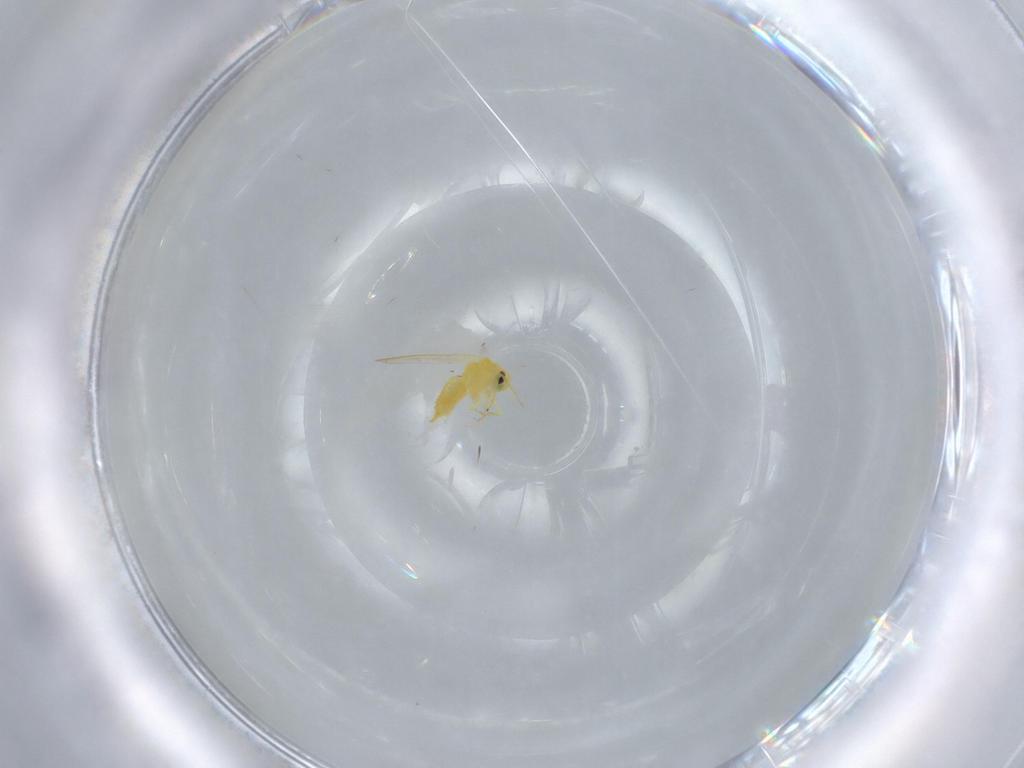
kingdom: Animalia
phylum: Arthropoda
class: Insecta
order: Hemiptera
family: Aleyrodidae
